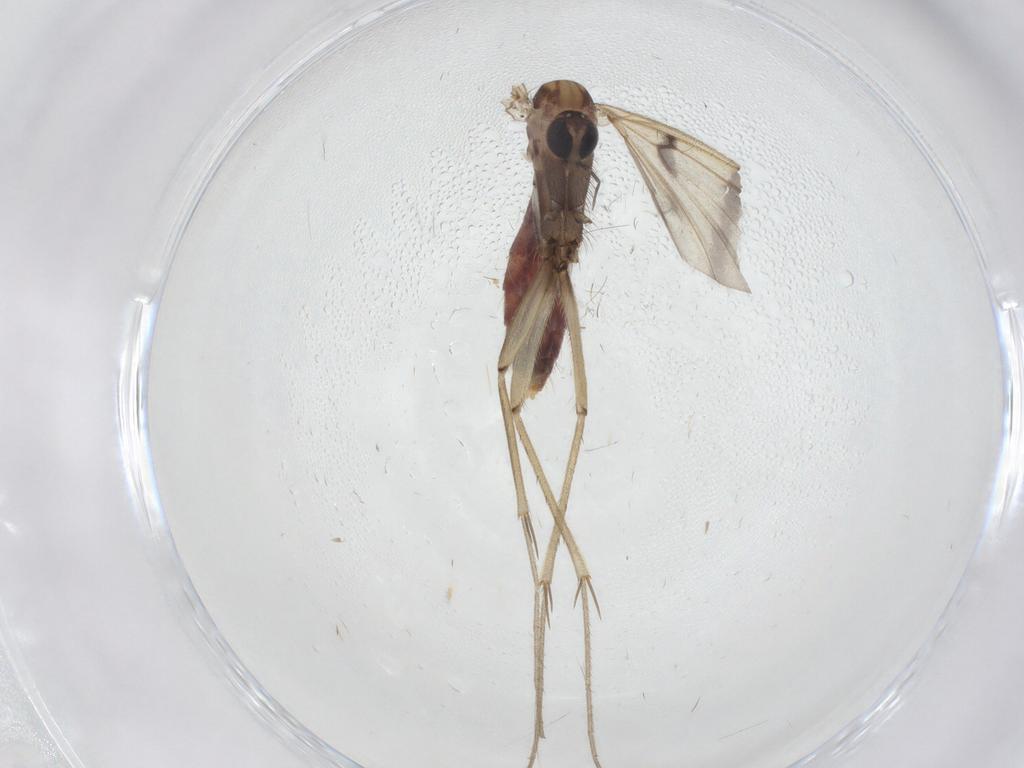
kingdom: Animalia
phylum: Arthropoda
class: Insecta
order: Diptera
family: Mycetophilidae
